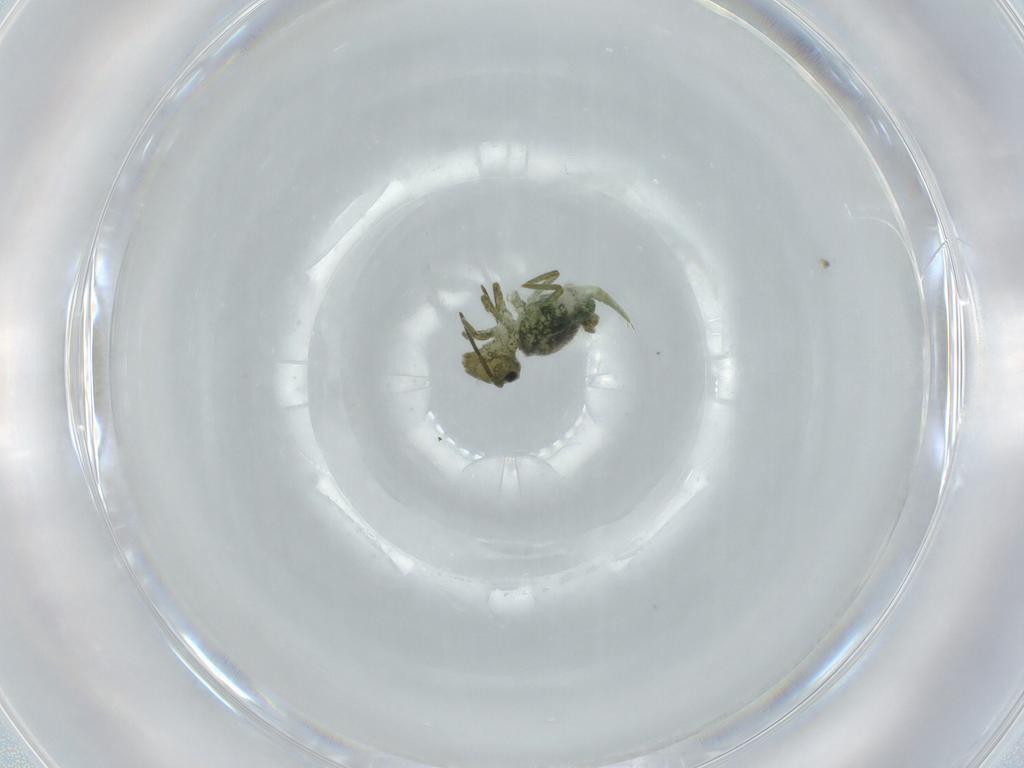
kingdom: Animalia
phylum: Arthropoda
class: Collembola
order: Symphypleona
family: Sminthuridae
